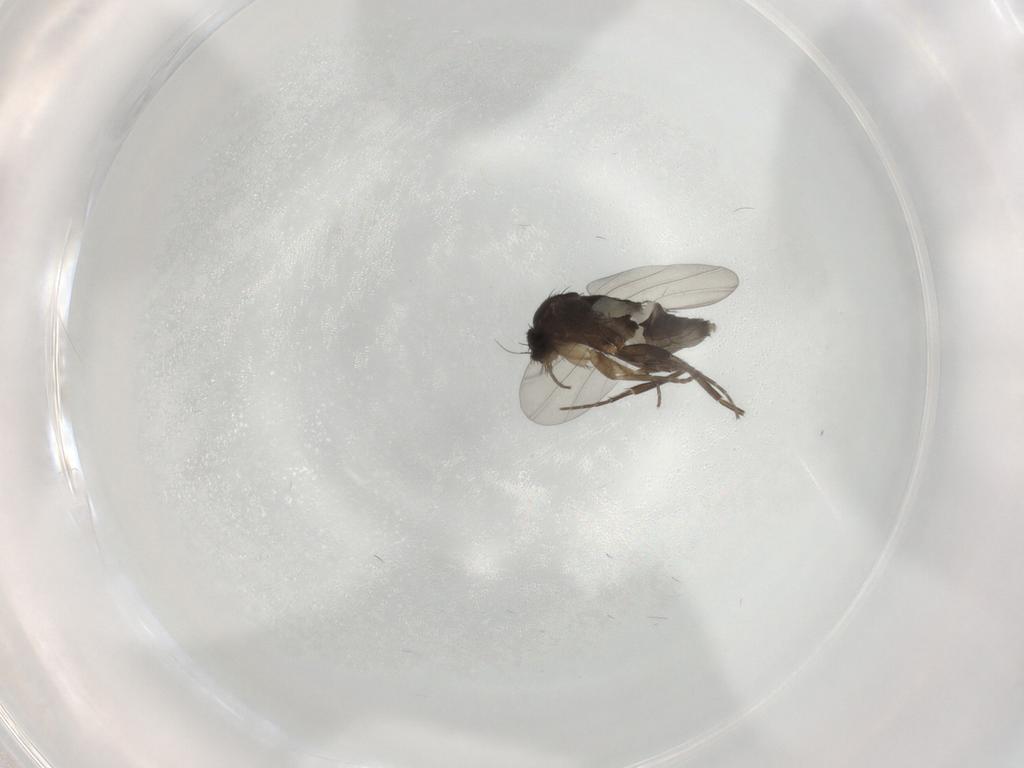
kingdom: Animalia
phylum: Arthropoda
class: Insecta
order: Diptera
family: Phoridae
